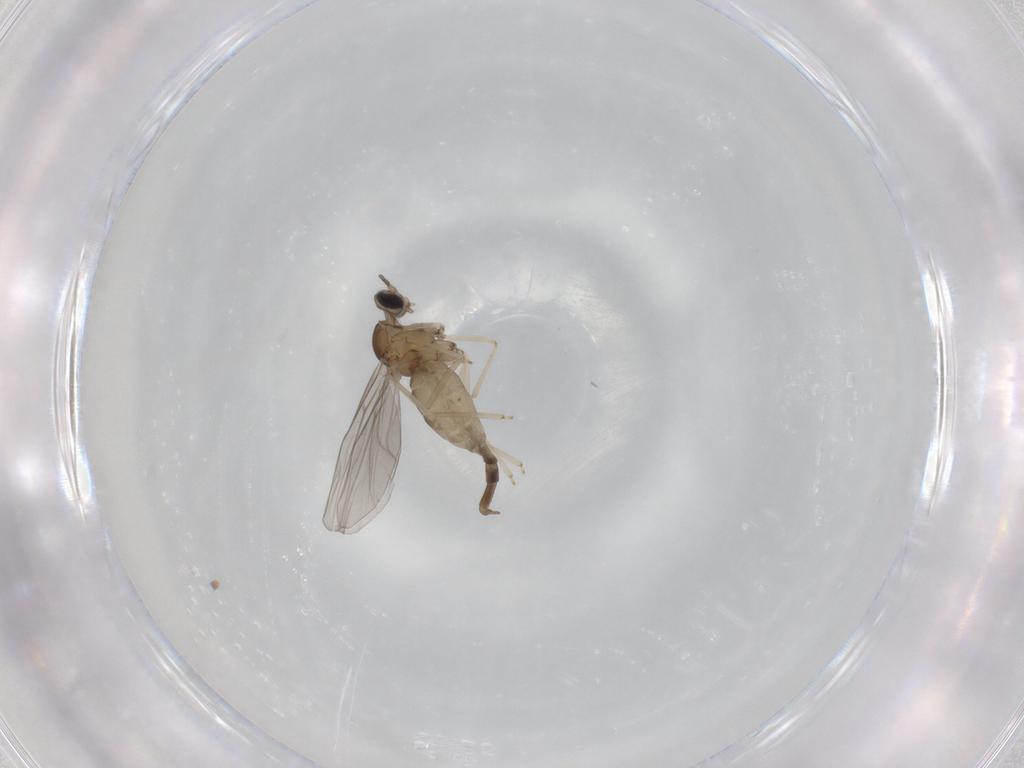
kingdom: Animalia
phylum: Arthropoda
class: Insecta
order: Diptera
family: Cecidomyiidae
